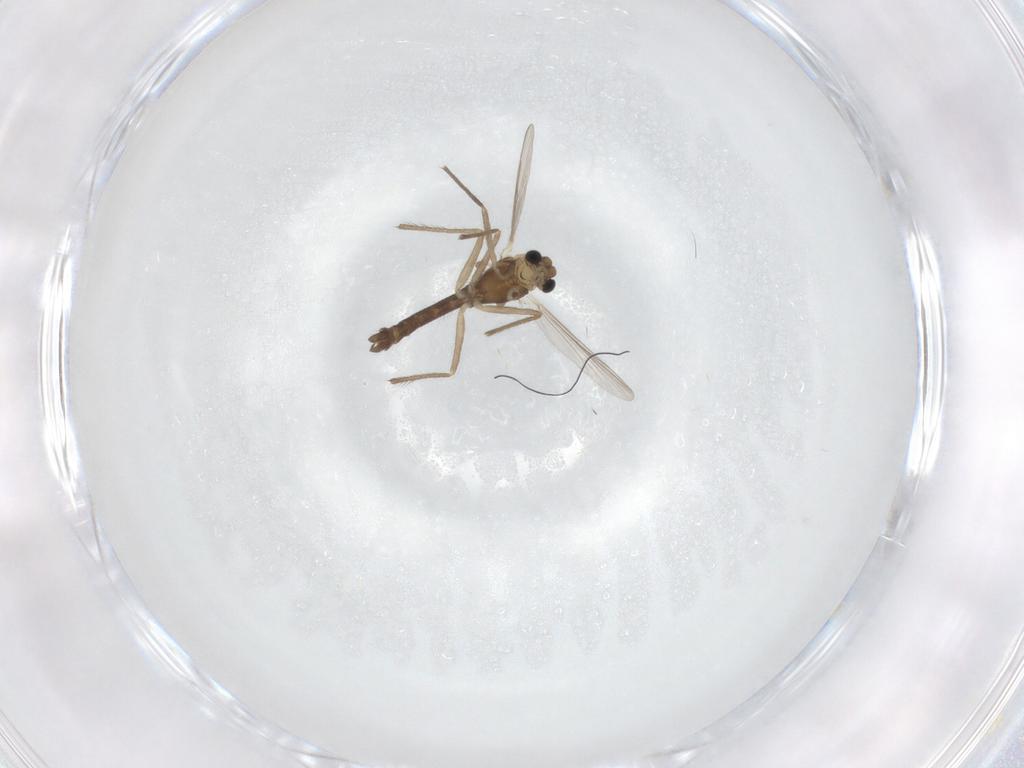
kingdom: Animalia
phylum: Arthropoda
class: Insecta
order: Diptera
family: Chironomidae
